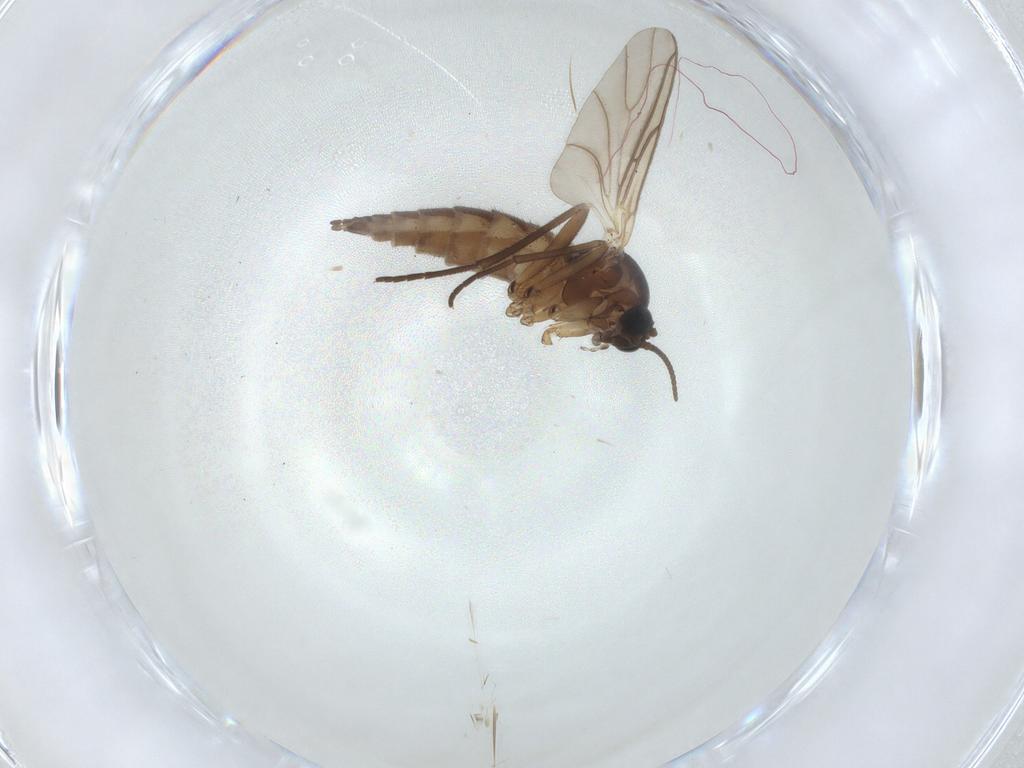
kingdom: Animalia
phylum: Arthropoda
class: Insecta
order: Diptera
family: Sciaridae
